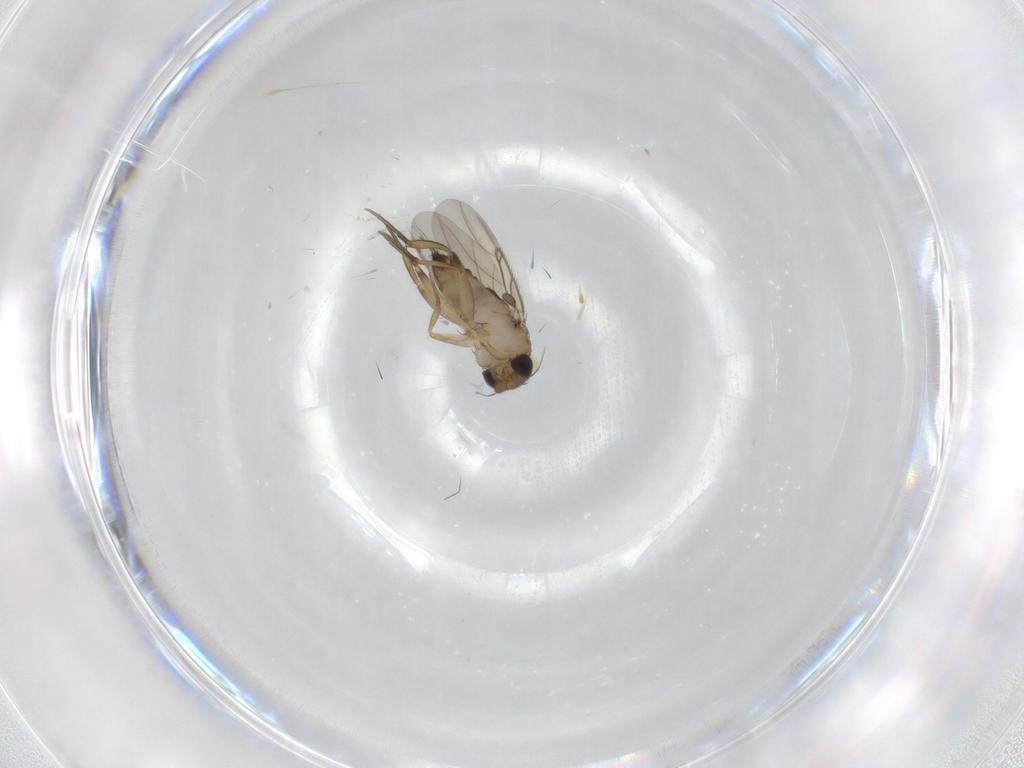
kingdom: Animalia
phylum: Arthropoda
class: Insecta
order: Diptera
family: Phoridae
